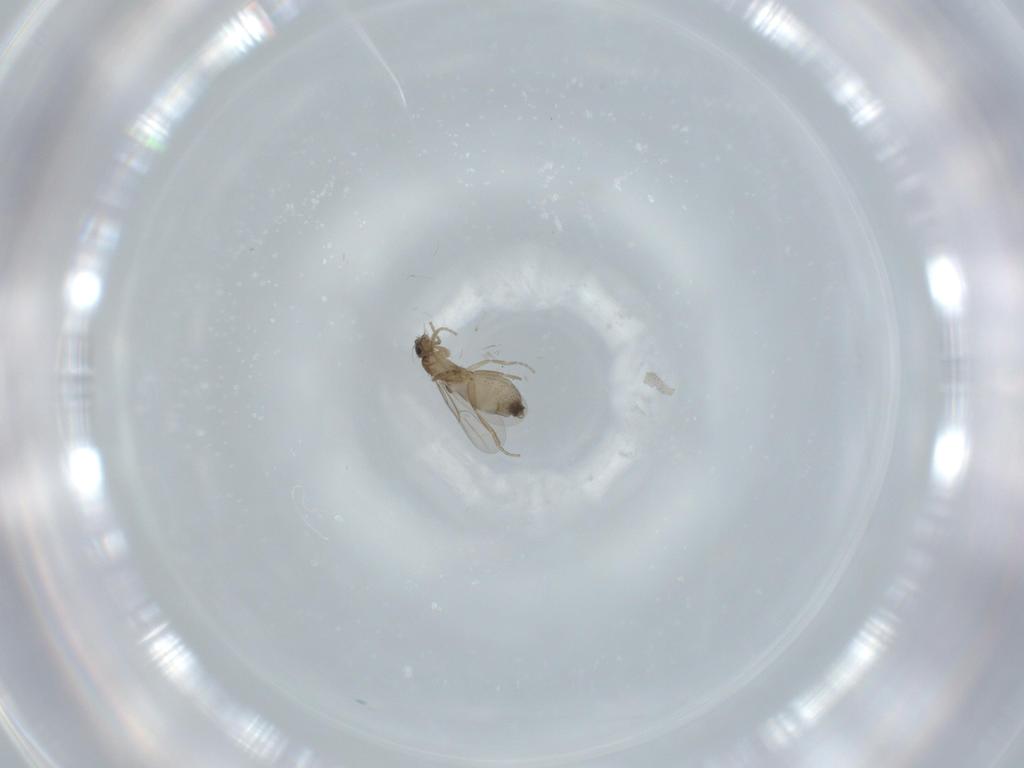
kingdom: Animalia
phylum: Arthropoda
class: Insecta
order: Diptera
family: Phoridae
